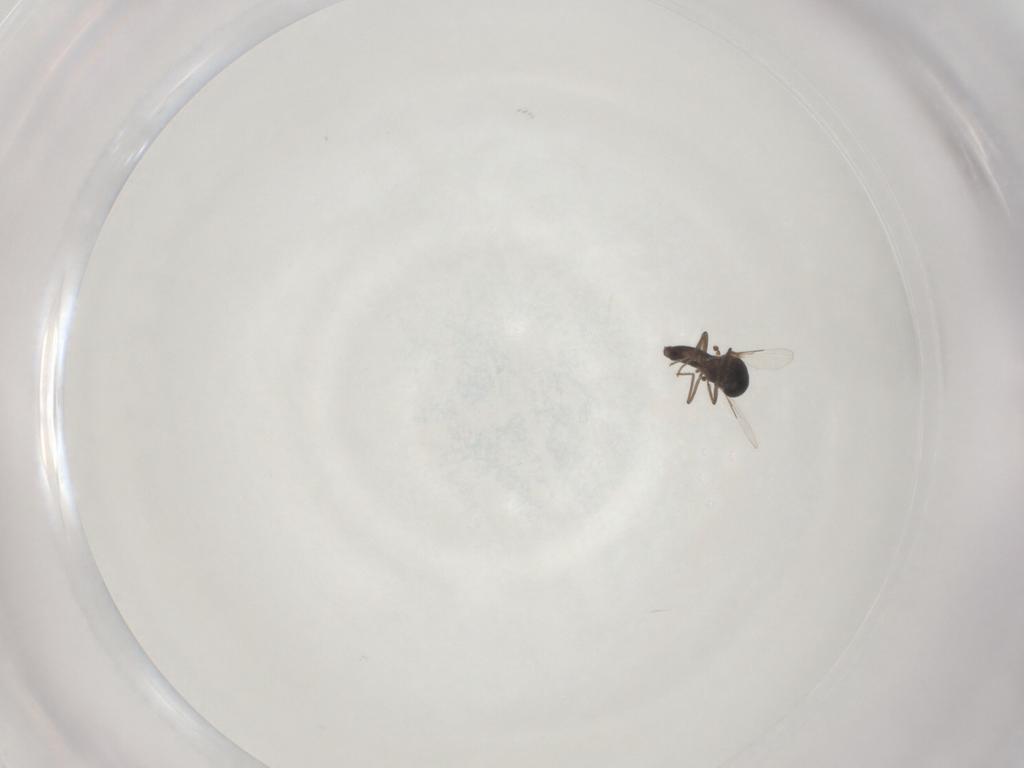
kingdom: Animalia
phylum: Arthropoda
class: Insecta
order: Diptera
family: Ceratopogonidae
